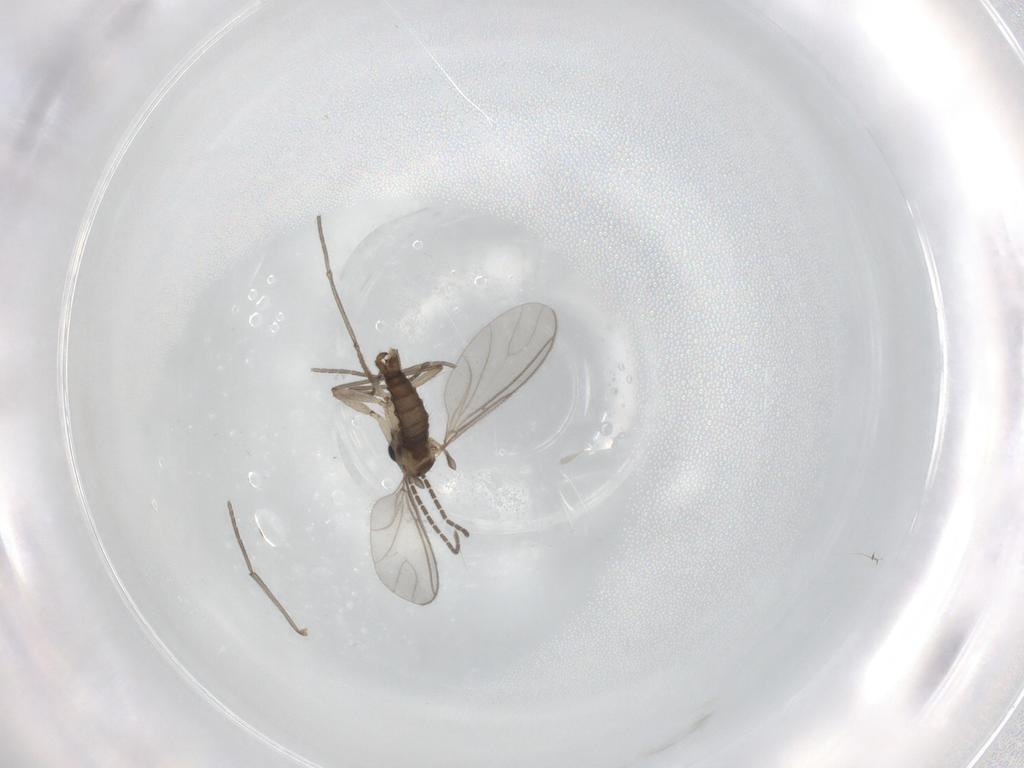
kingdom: Animalia
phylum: Arthropoda
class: Insecta
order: Diptera
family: Sciaridae
